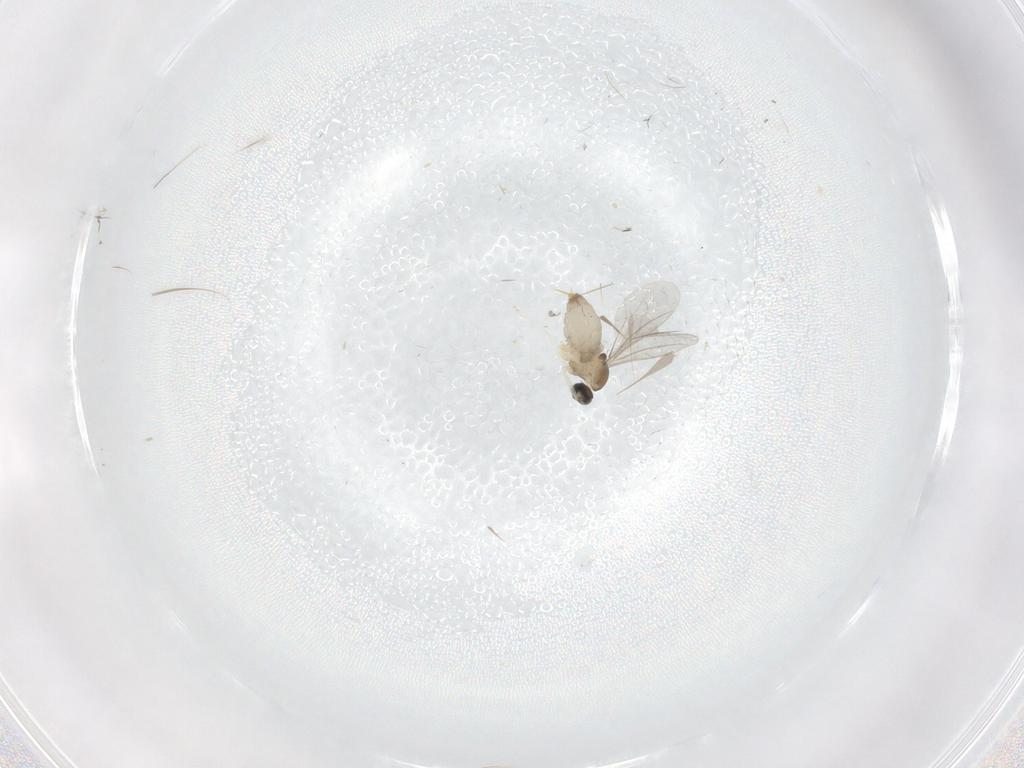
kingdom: Animalia
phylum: Arthropoda
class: Insecta
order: Diptera
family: Cecidomyiidae
